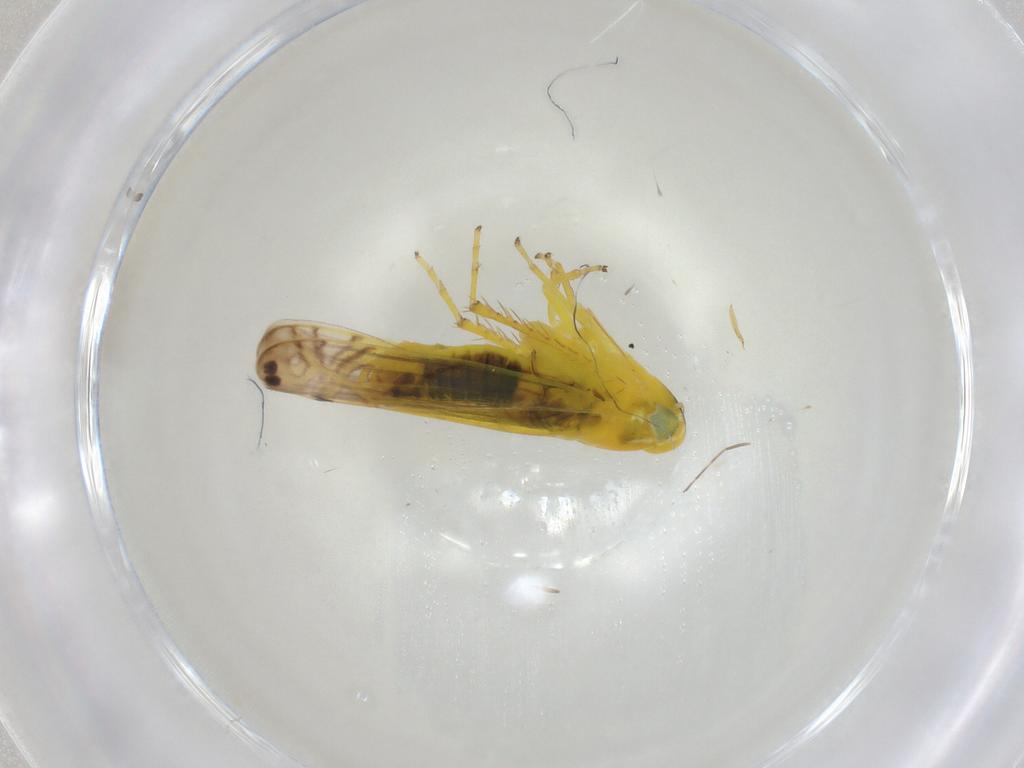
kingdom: Animalia
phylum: Arthropoda
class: Insecta
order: Hemiptera
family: Cicadellidae
